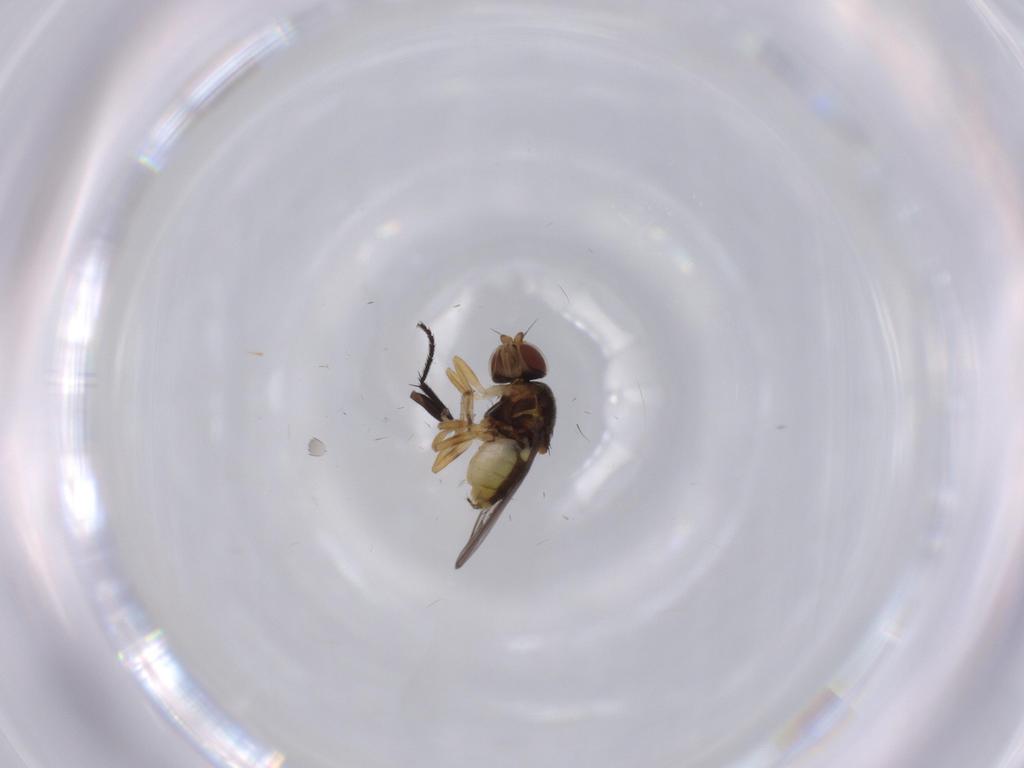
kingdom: Animalia
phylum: Arthropoda
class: Insecta
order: Diptera
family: Chloropidae
